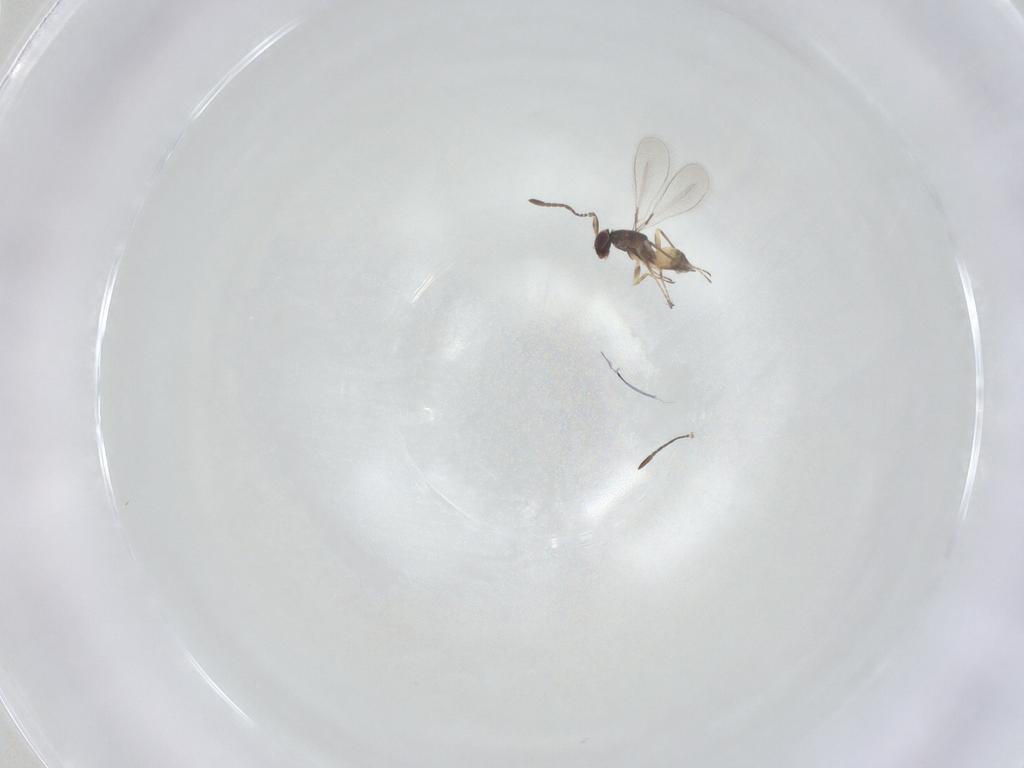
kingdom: Animalia
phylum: Arthropoda
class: Insecta
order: Hymenoptera
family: Mymaridae
